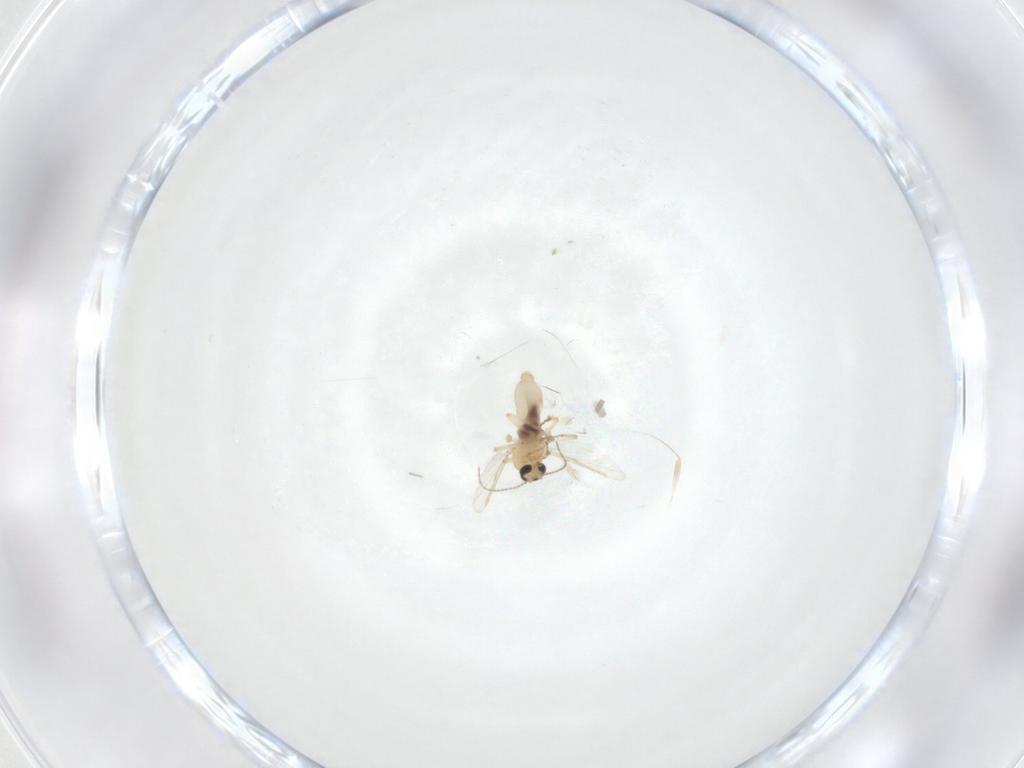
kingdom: Animalia
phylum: Arthropoda
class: Insecta
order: Diptera
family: Ceratopogonidae
